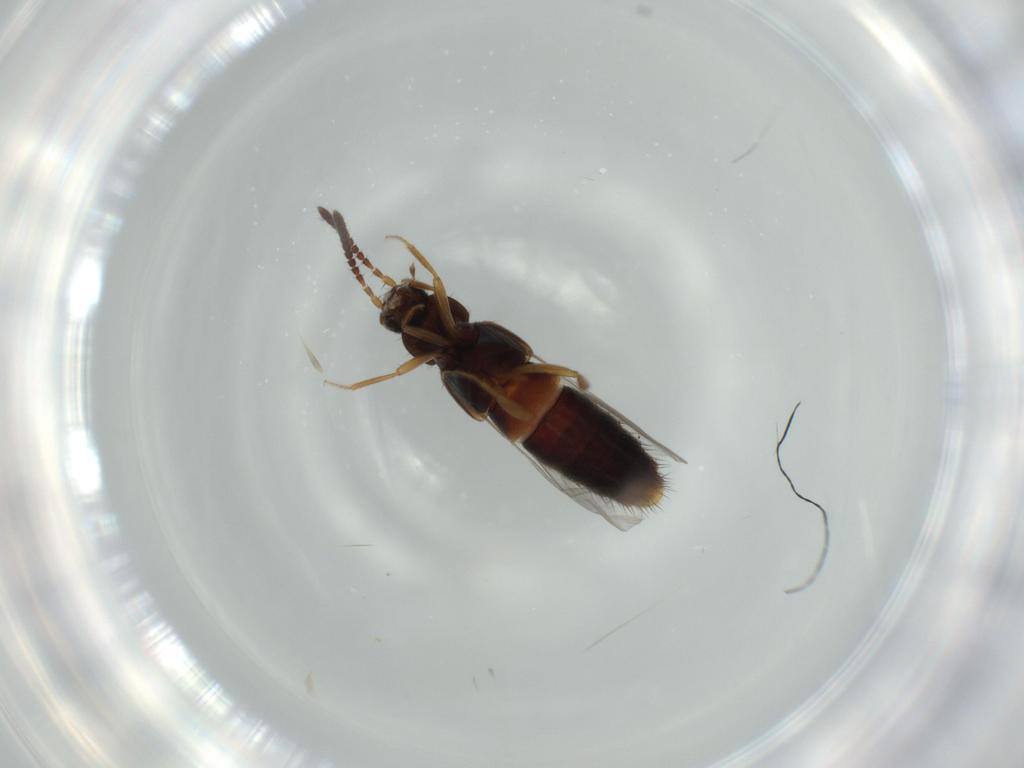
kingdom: Animalia
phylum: Arthropoda
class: Insecta
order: Coleoptera
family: Staphylinidae
